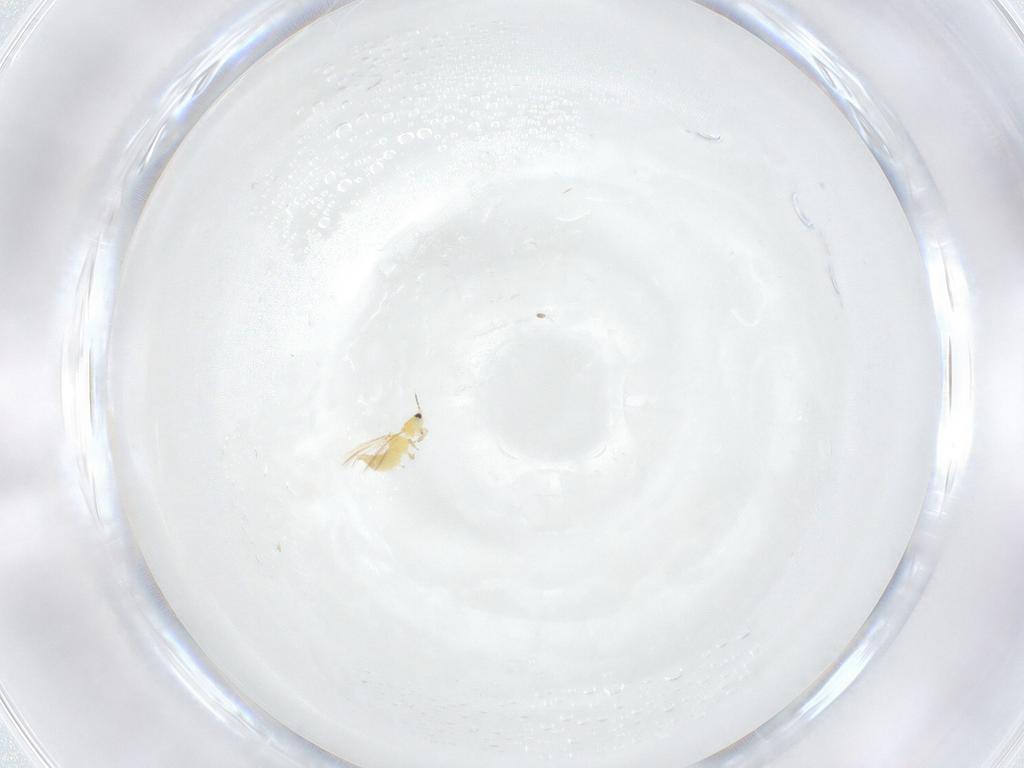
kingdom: Animalia
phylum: Arthropoda
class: Insecta
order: Thysanoptera
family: Thripidae
